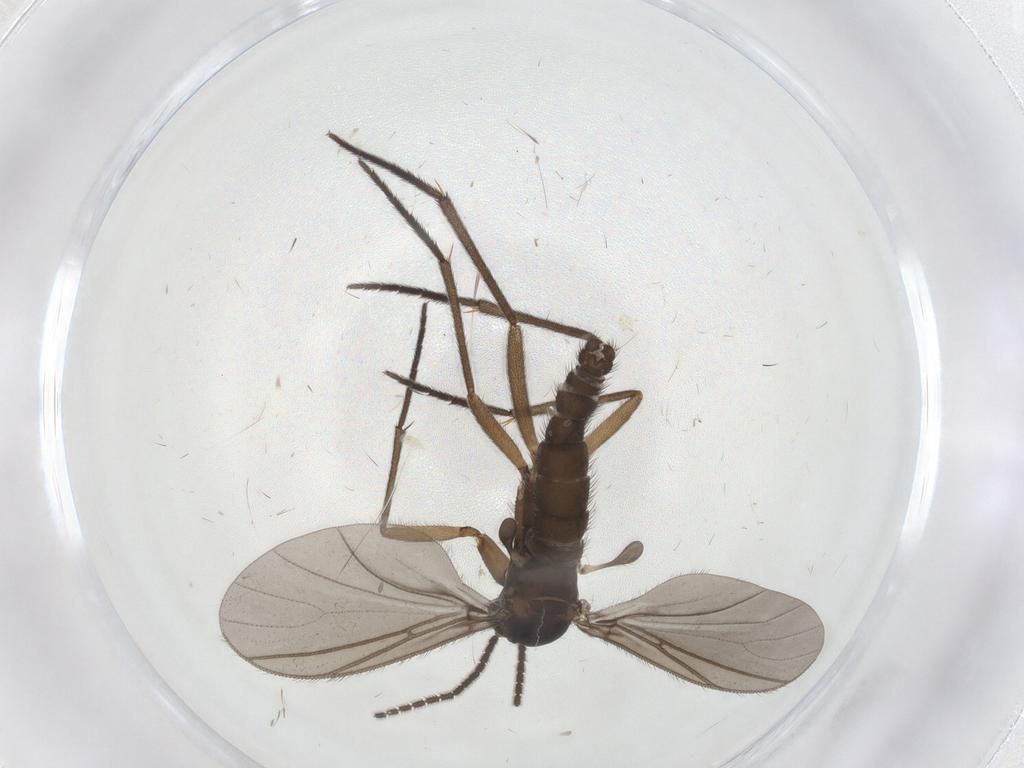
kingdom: Animalia
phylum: Arthropoda
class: Insecta
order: Diptera
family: Sciaridae
